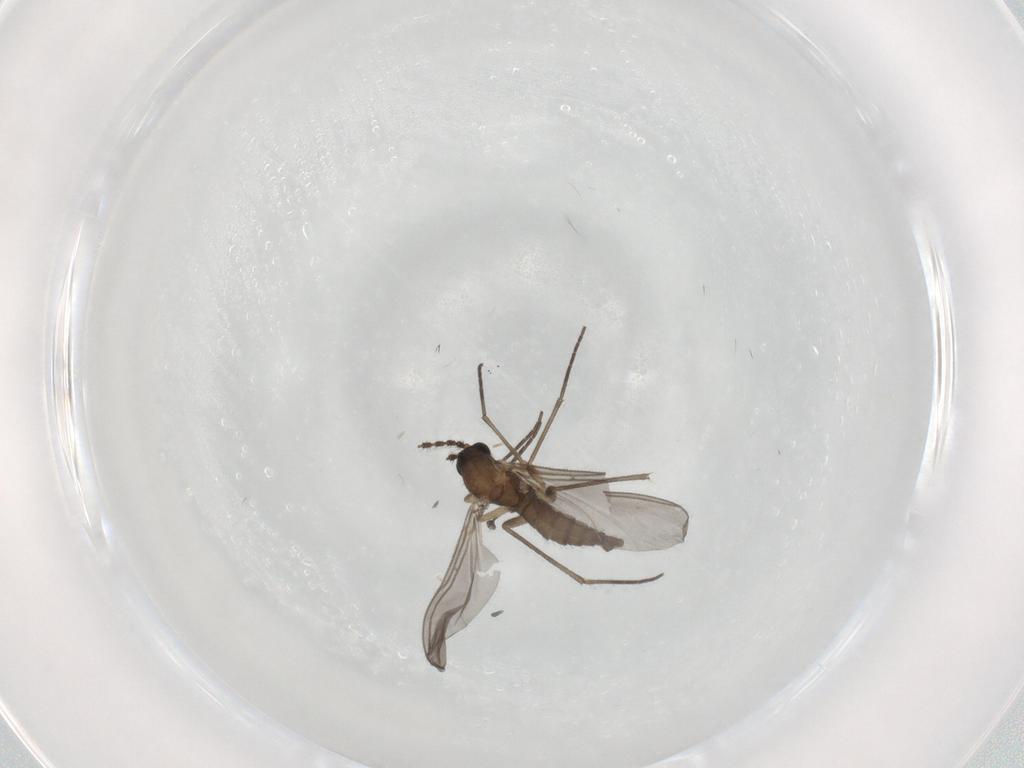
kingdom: Animalia
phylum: Arthropoda
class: Insecta
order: Diptera
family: Sciaridae
